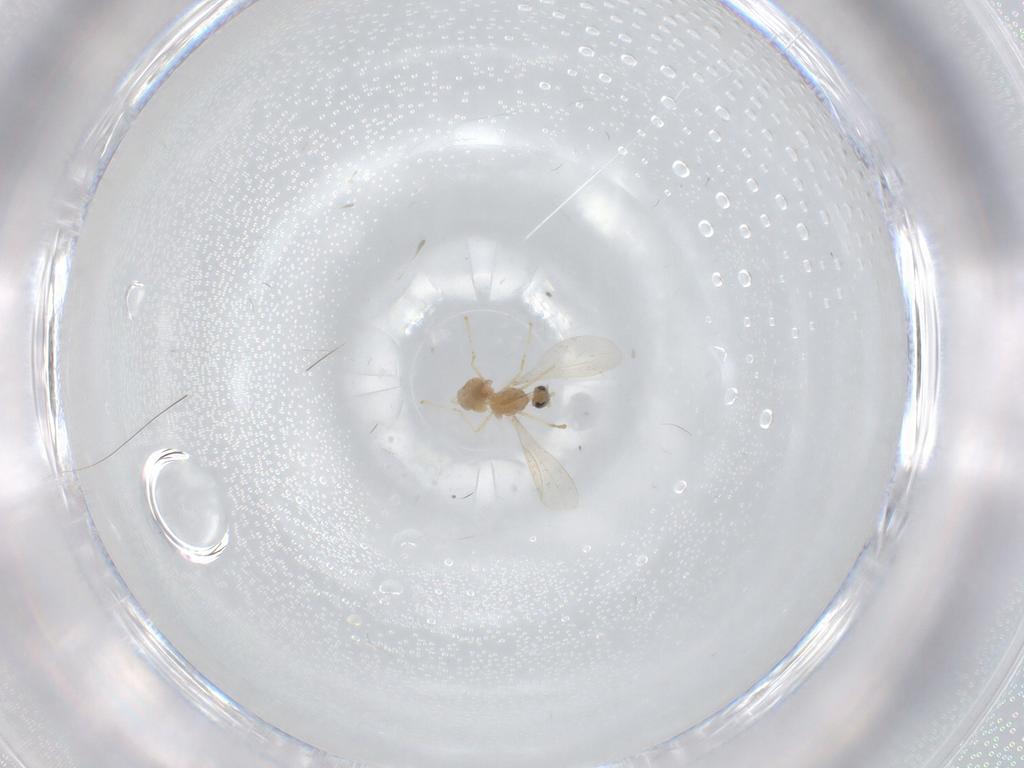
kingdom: Animalia
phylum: Arthropoda
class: Insecta
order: Diptera
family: Cecidomyiidae
